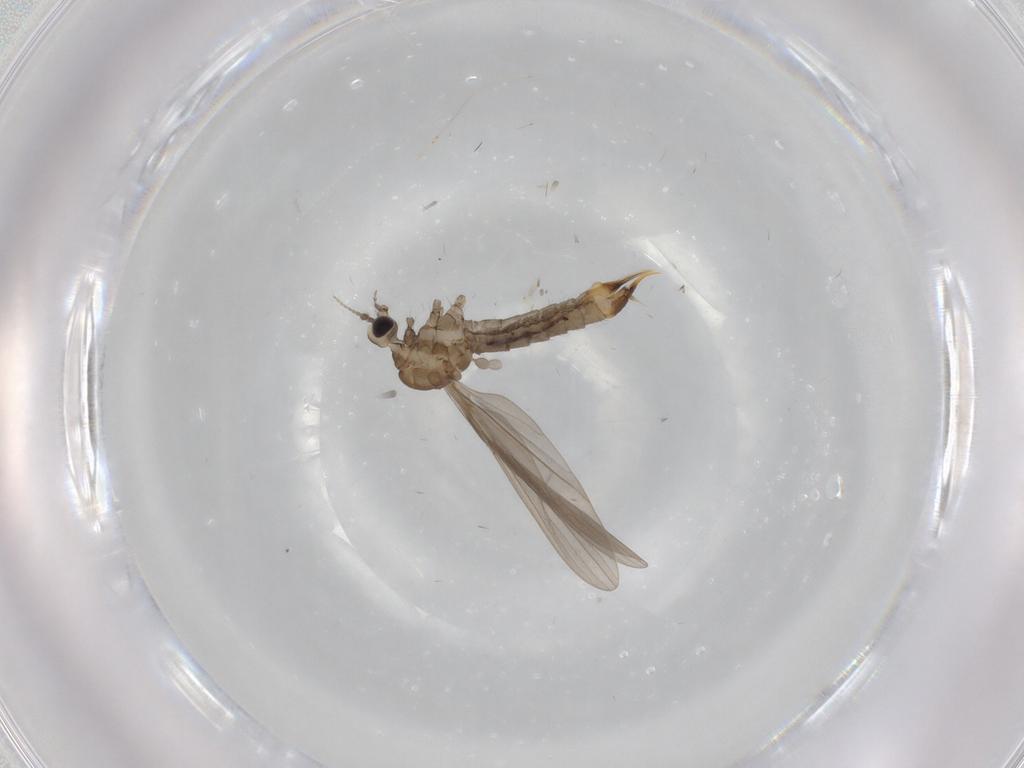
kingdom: Animalia
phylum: Arthropoda
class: Insecta
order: Diptera
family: Limoniidae
